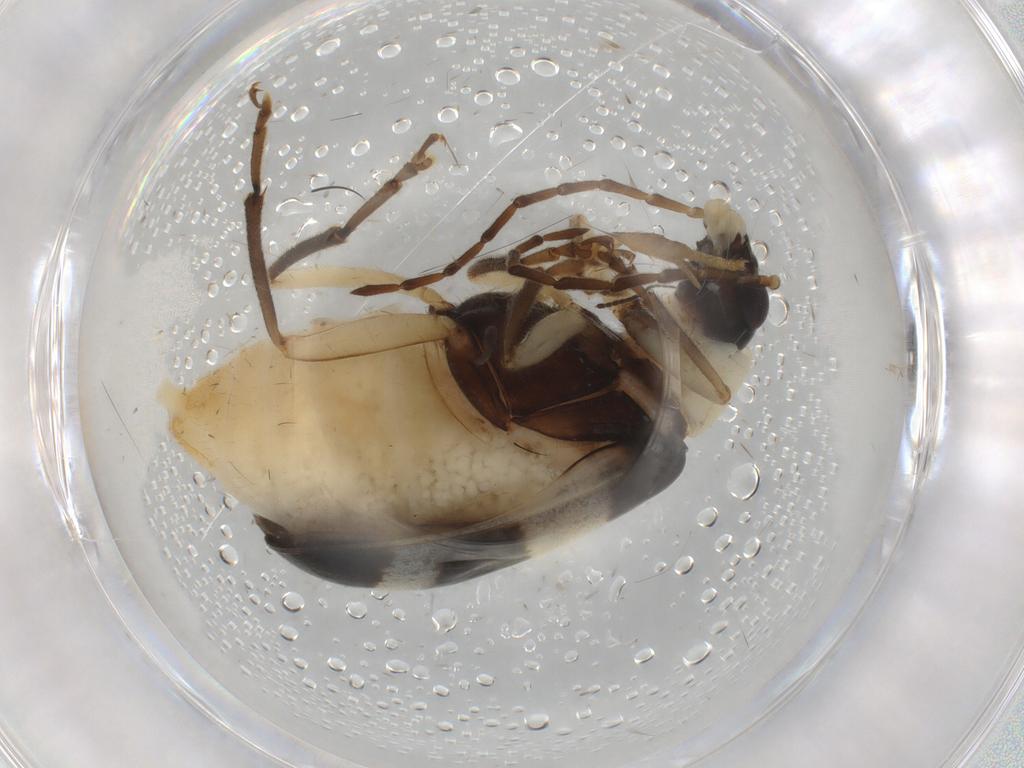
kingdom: Animalia
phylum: Arthropoda
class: Insecta
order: Coleoptera
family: Chrysomelidae
